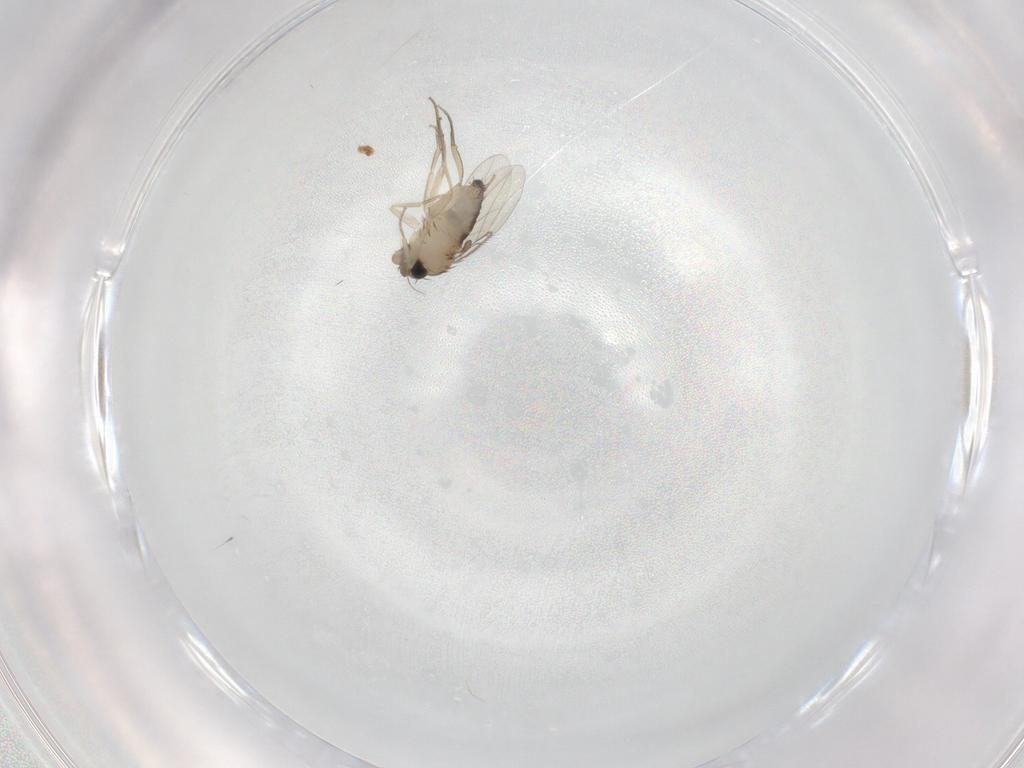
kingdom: Animalia
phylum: Arthropoda
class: Insecta
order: Diptera
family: Phoridae
